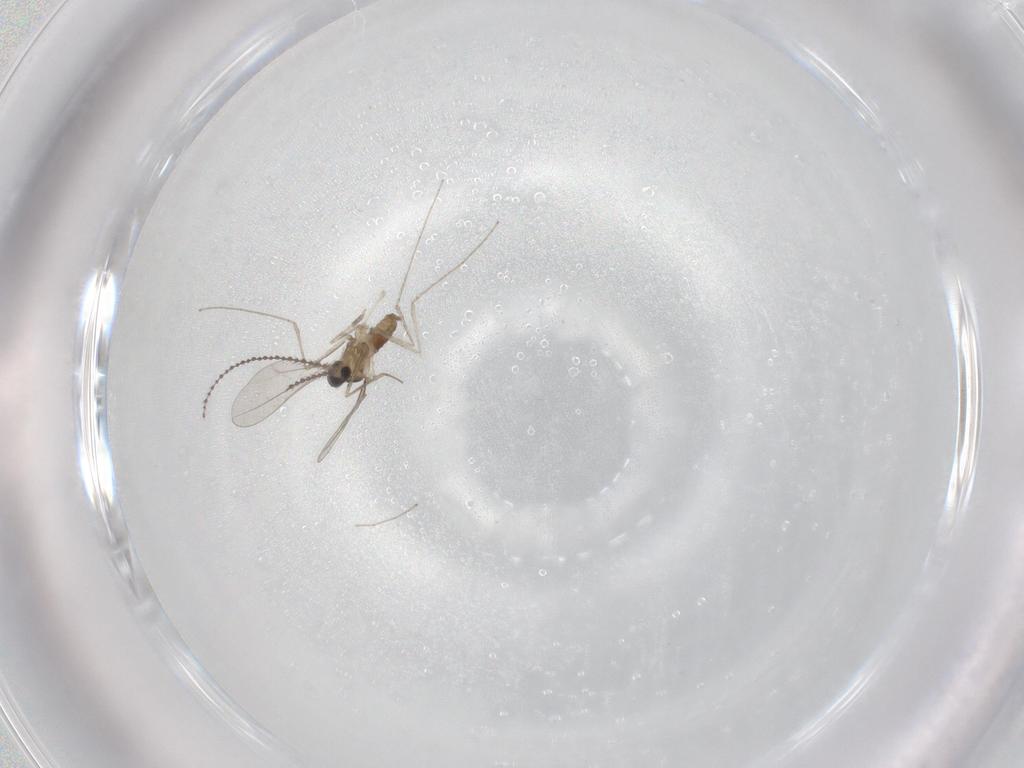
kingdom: Animalia
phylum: Arthropoda
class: Insecta
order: Diptera
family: Cecidomyiidae
